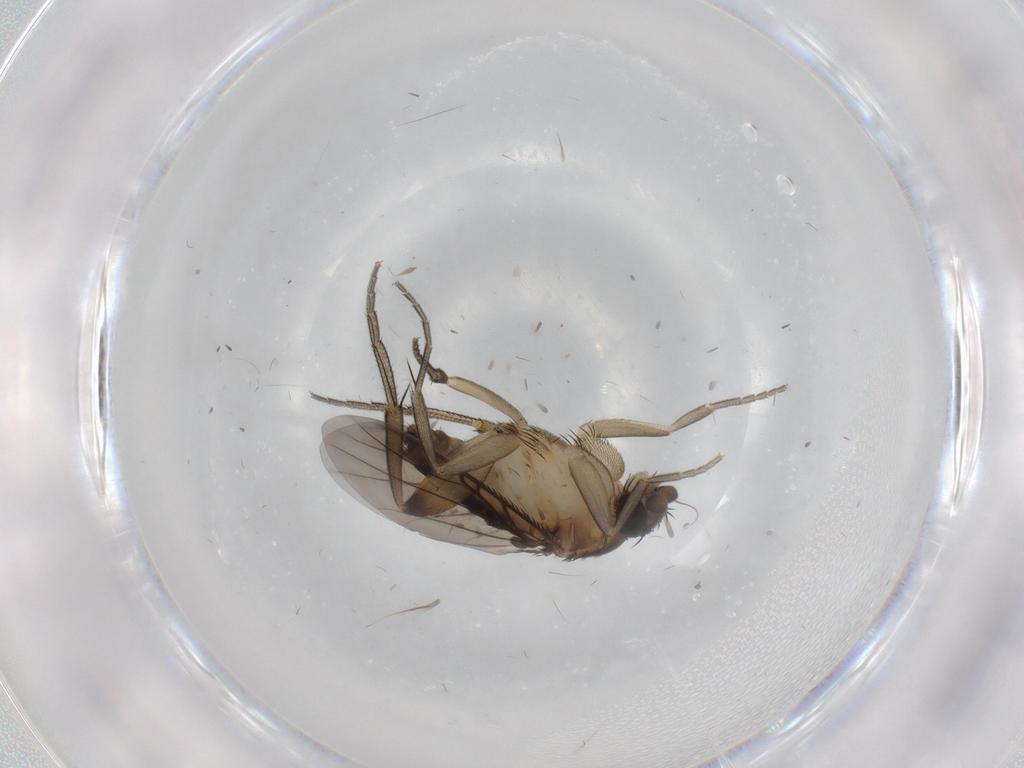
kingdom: Animalia
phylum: Arthropoda
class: Insecta
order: Diptera
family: Phoridae
